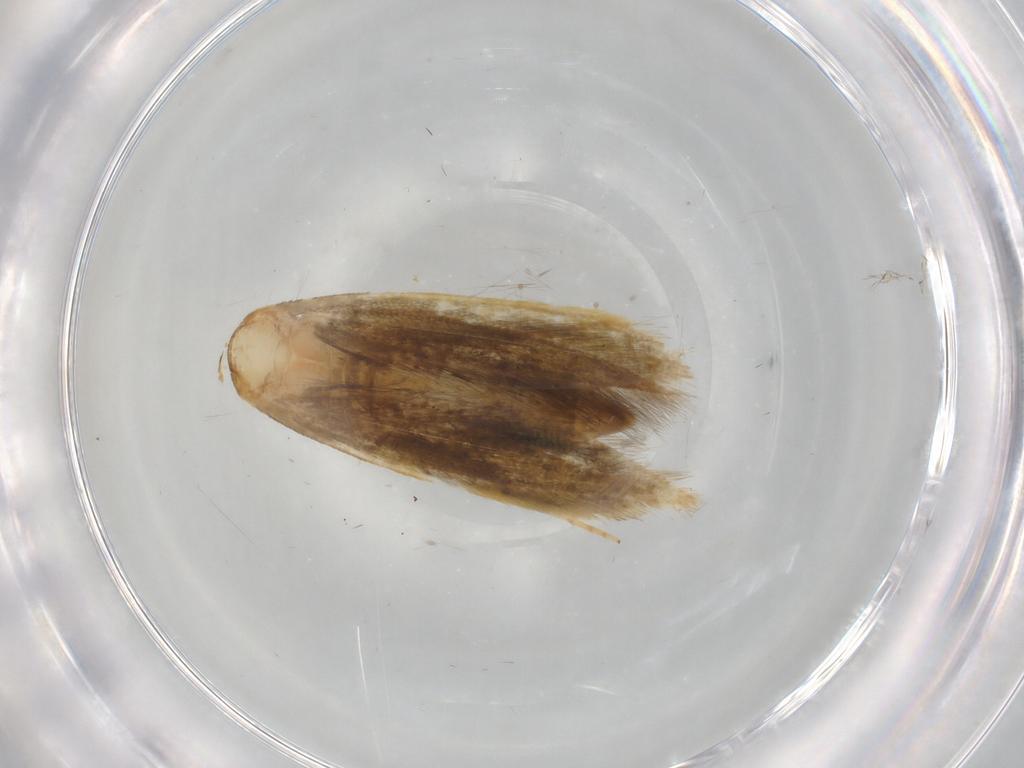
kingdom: Animalia
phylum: Arthropoda
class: Insecta
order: Lepidoptera
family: Tineidae
